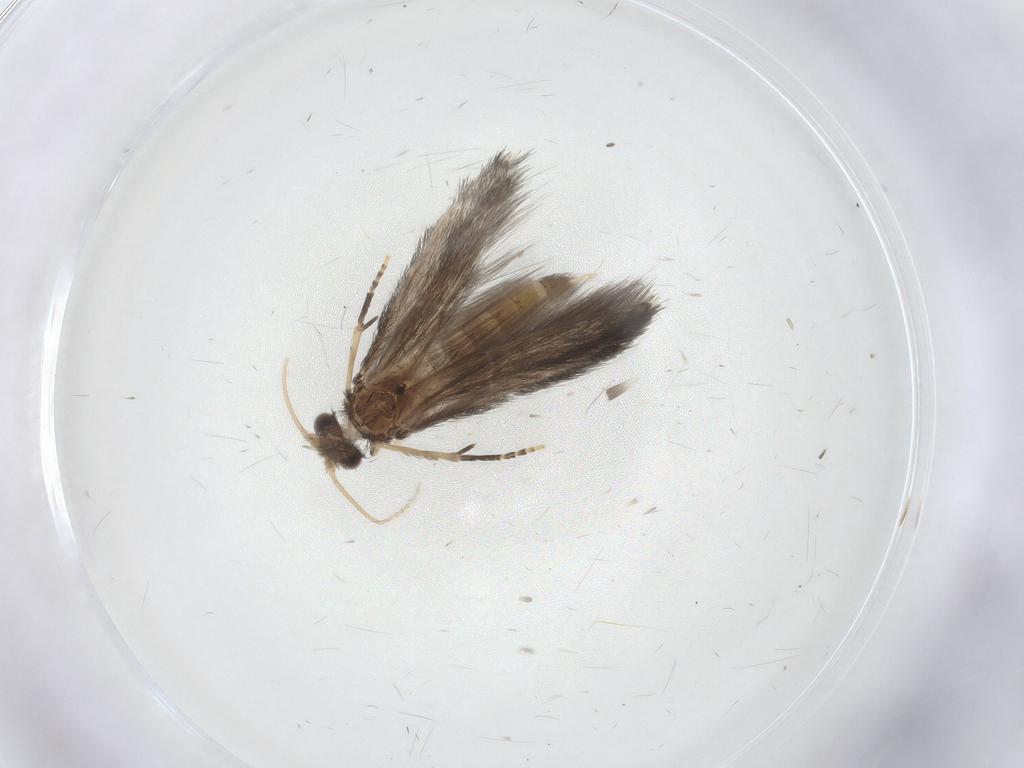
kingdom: Animalia
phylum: Arthropoda
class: Insecta
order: Trichoptera
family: Hydroptilidae
